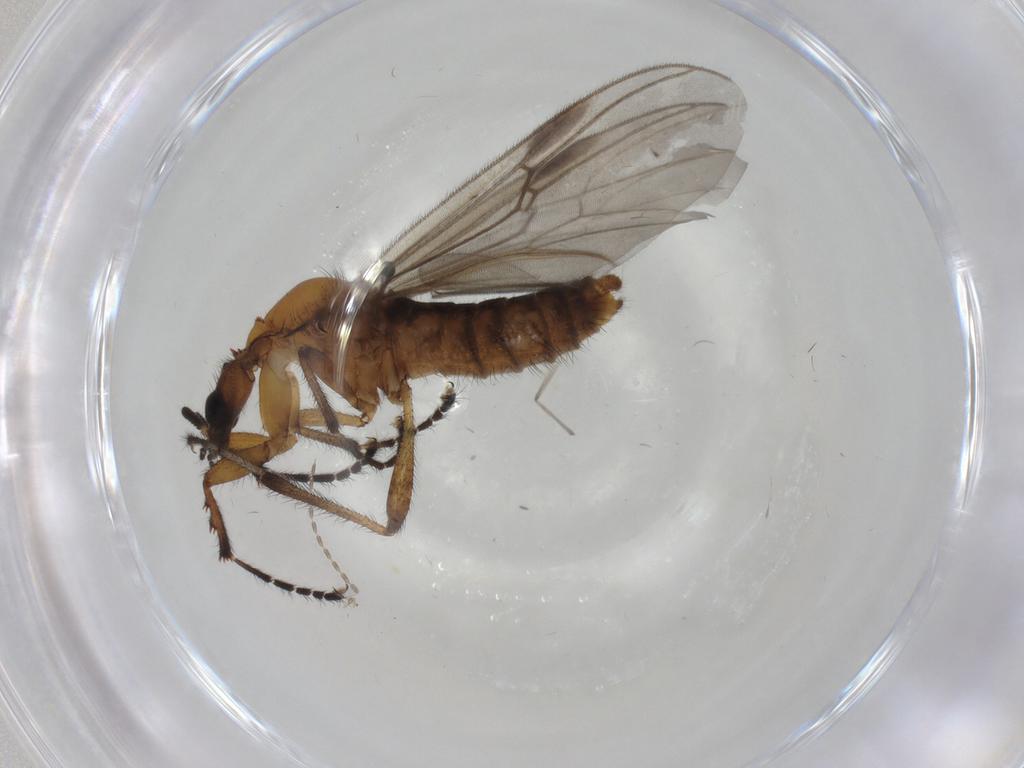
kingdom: Animalia
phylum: Arthropoda
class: Insecta
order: Diptera
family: Bibionidae
